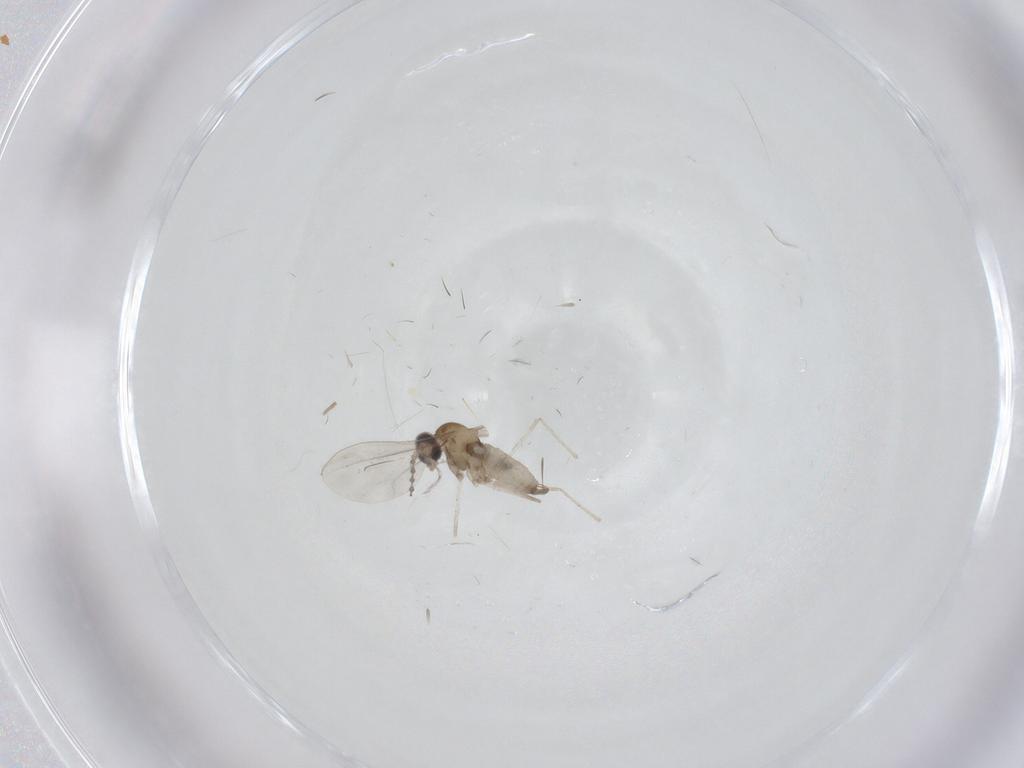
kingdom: Animalia
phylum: Arthropoda
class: Insecta
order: Diptera
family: Cecidomyiidae
